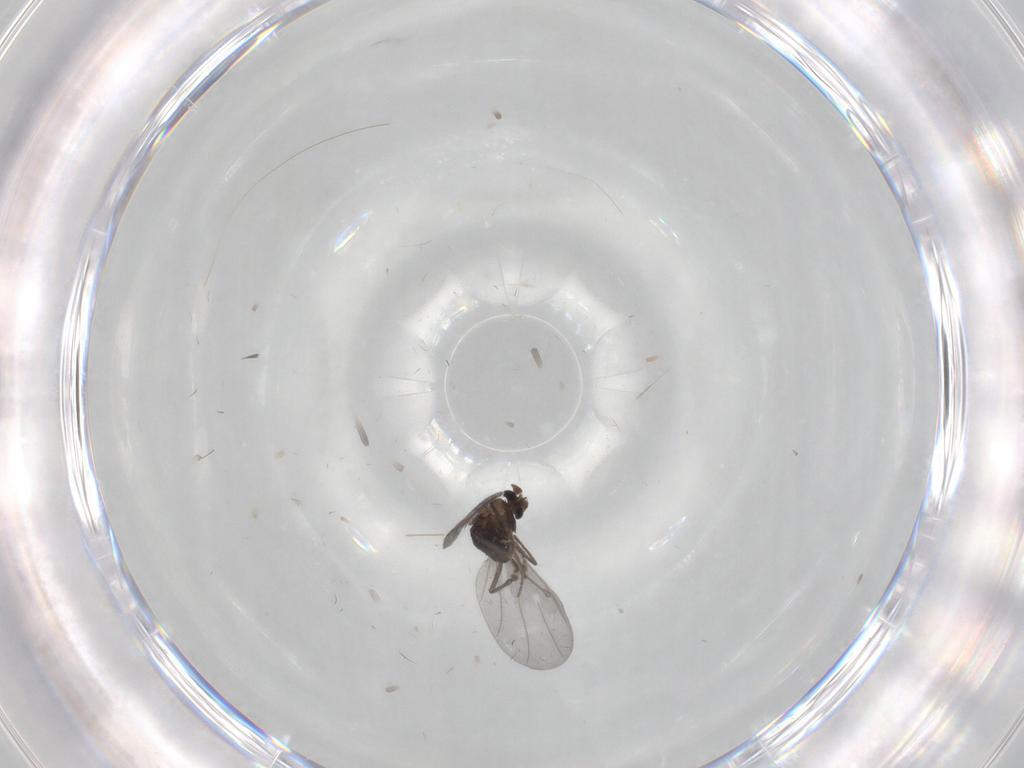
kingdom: Animalia
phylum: Arthropoda
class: Insecta
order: Diptera
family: Phoridae
